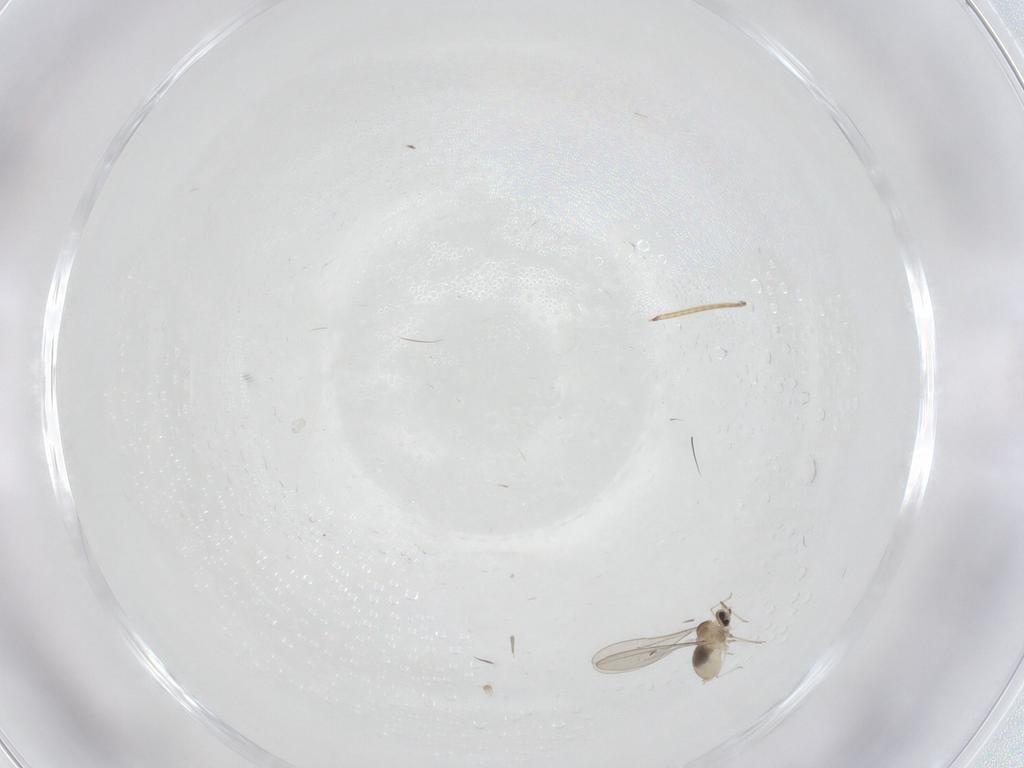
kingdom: Animalia
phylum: Arthropoda
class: Insecta
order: Diptera
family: Cecidomyiidae
